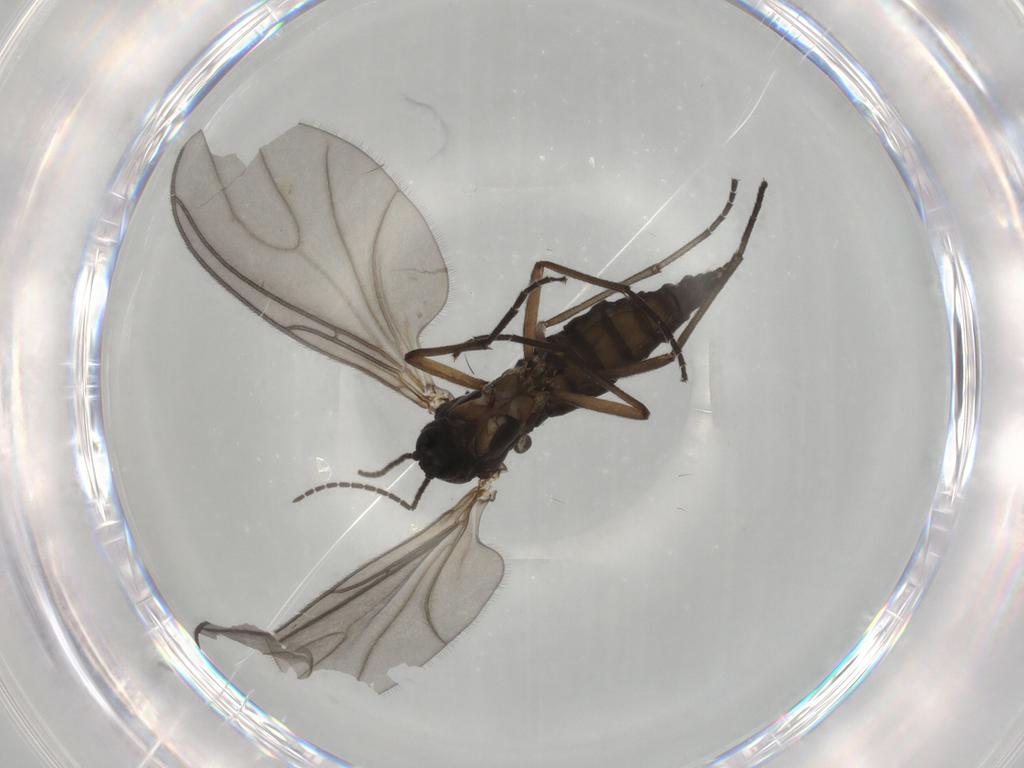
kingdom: Animalia
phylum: Arthropoda
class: Insecta
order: Diptera
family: Sciaridae
